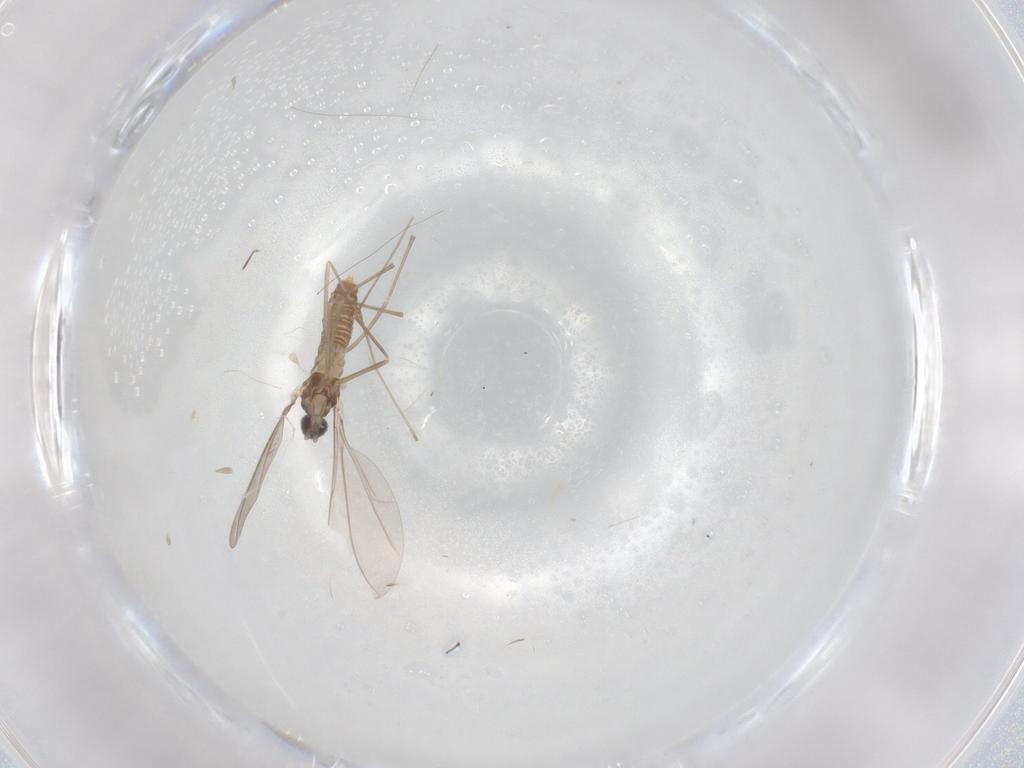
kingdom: Animalia
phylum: Arthropoda
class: Insecta
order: Diptera
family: Cecidomyiidae
